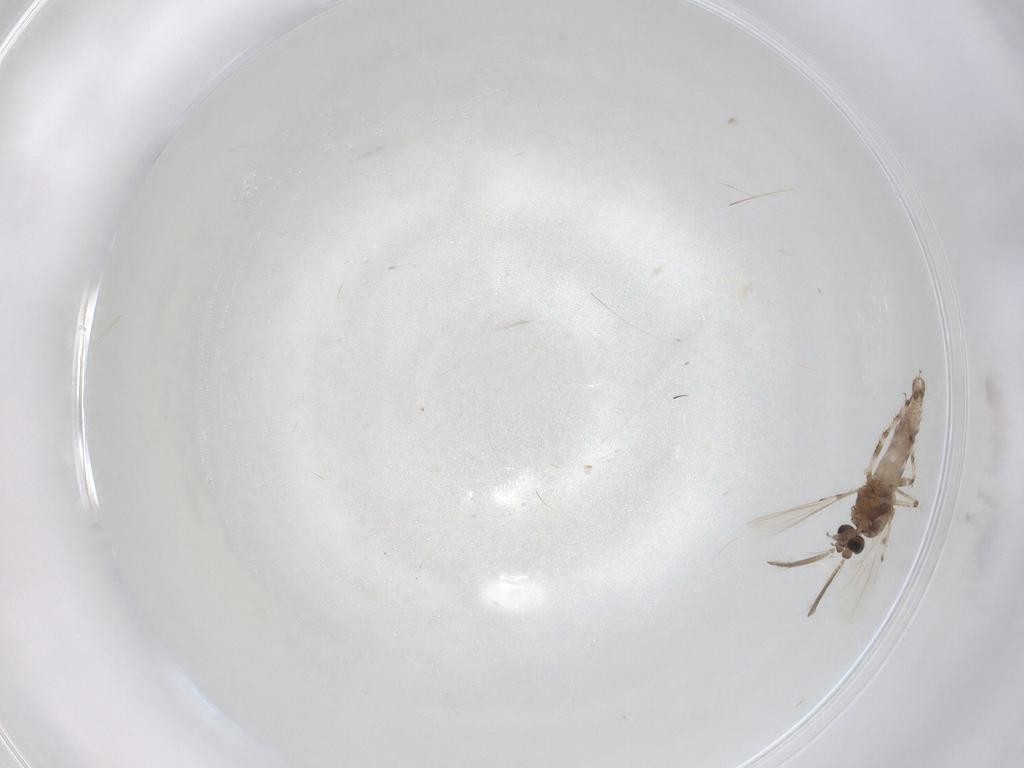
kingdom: Animalia
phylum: Arthropoda
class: Insecta
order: Diptera
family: Ceratopogonidae
